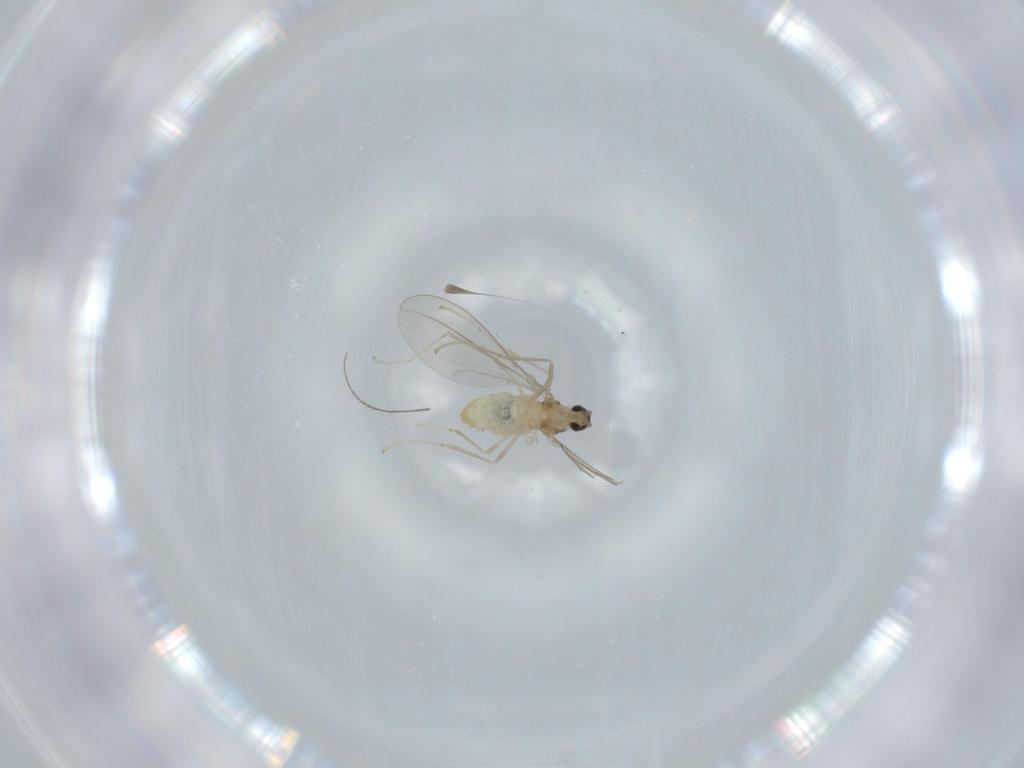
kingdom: Animalia
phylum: Arthropoda
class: Insecta
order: Diptera
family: Cecidomyiidae
